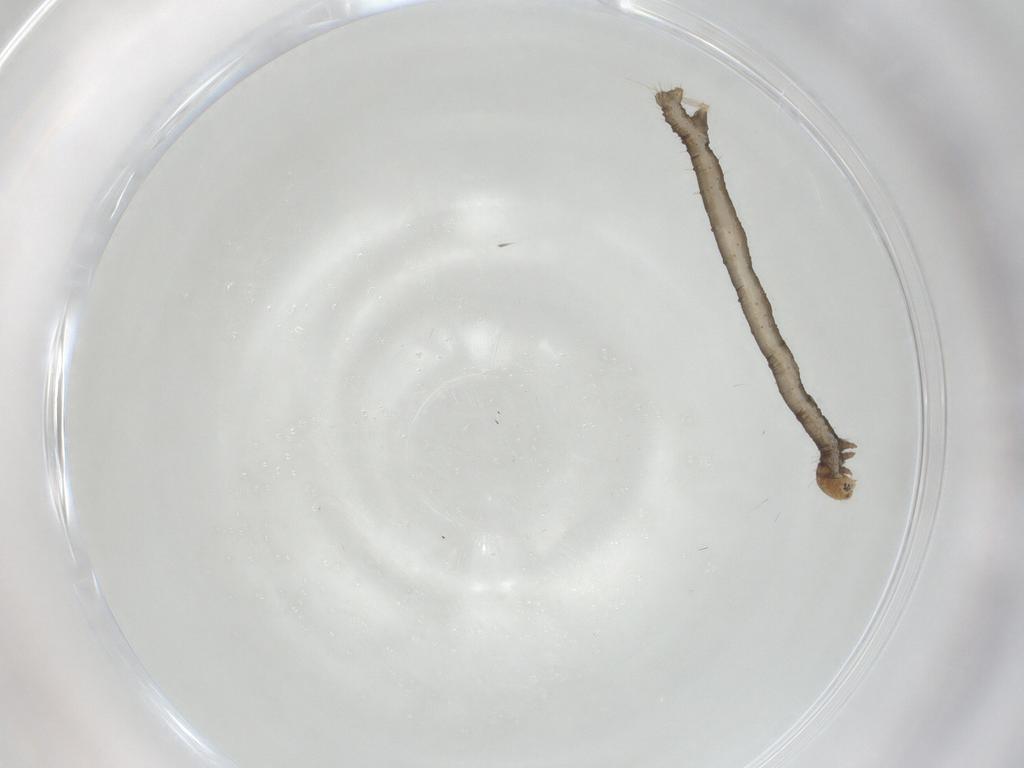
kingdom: Animalia
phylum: Arthropoda
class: Insecta
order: Lepidoptera
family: Geometridae
